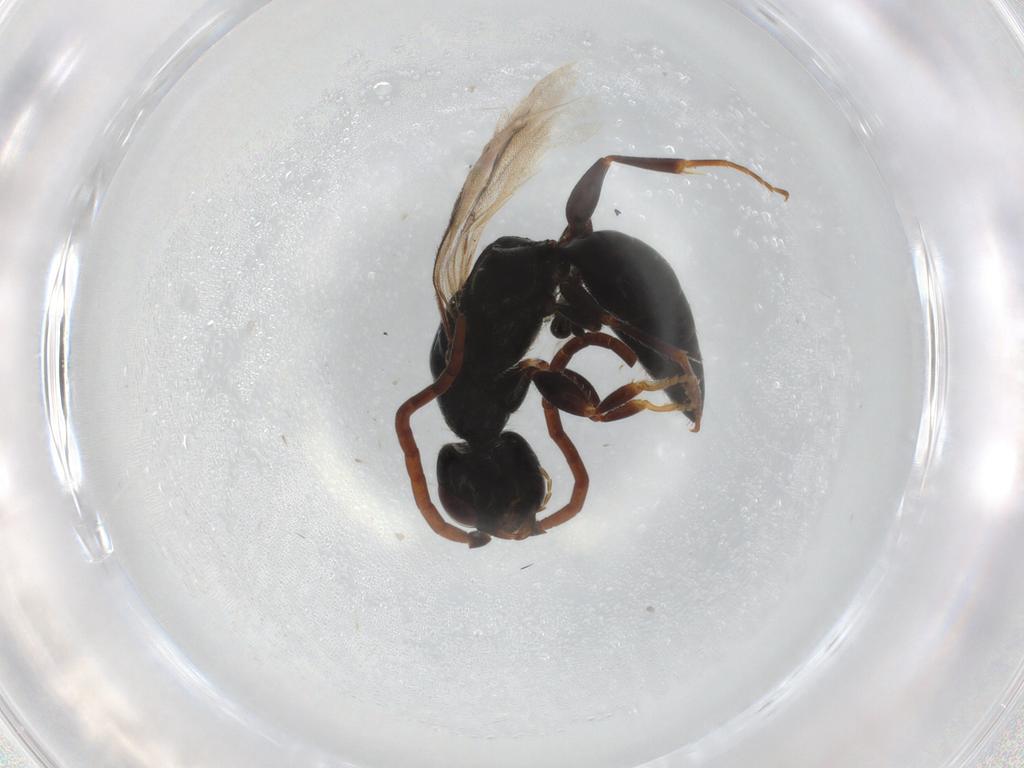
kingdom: Animalia
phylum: Arthropoda
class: Insecta
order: Hymenoptera
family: Scelionidae
